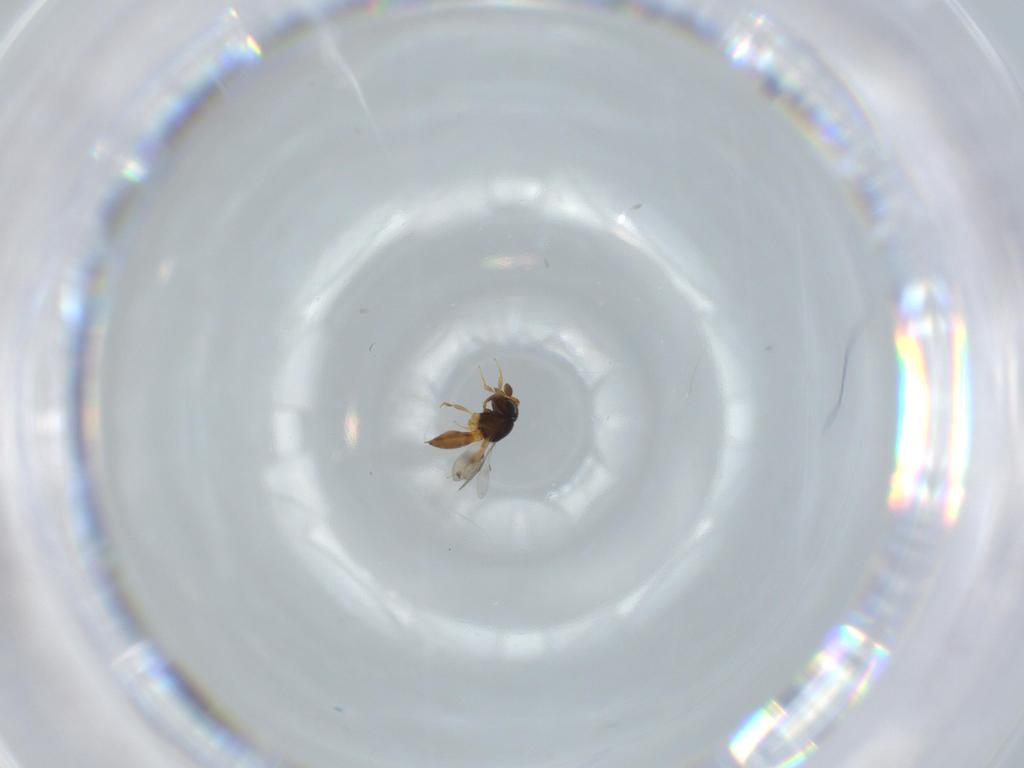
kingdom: Animalia
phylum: Arthropoda
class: Insecta
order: Hymenoptera
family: Scelionidae
